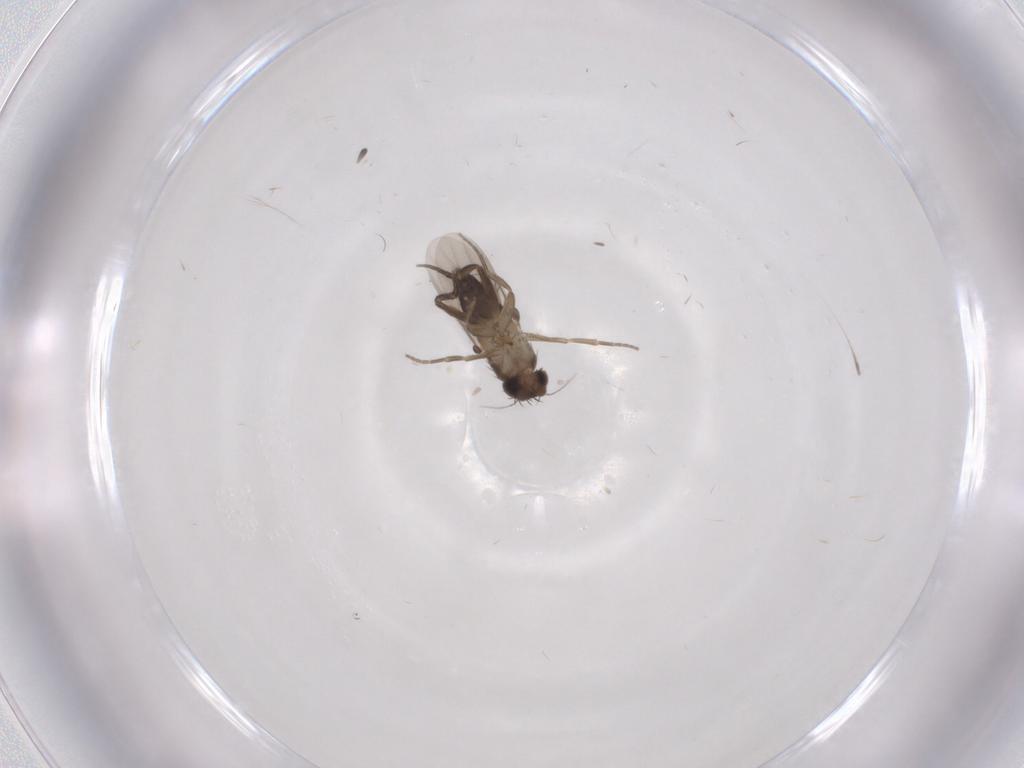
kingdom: Animalia
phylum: Arthropoda
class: Insecta
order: Diptera
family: Phoridae
